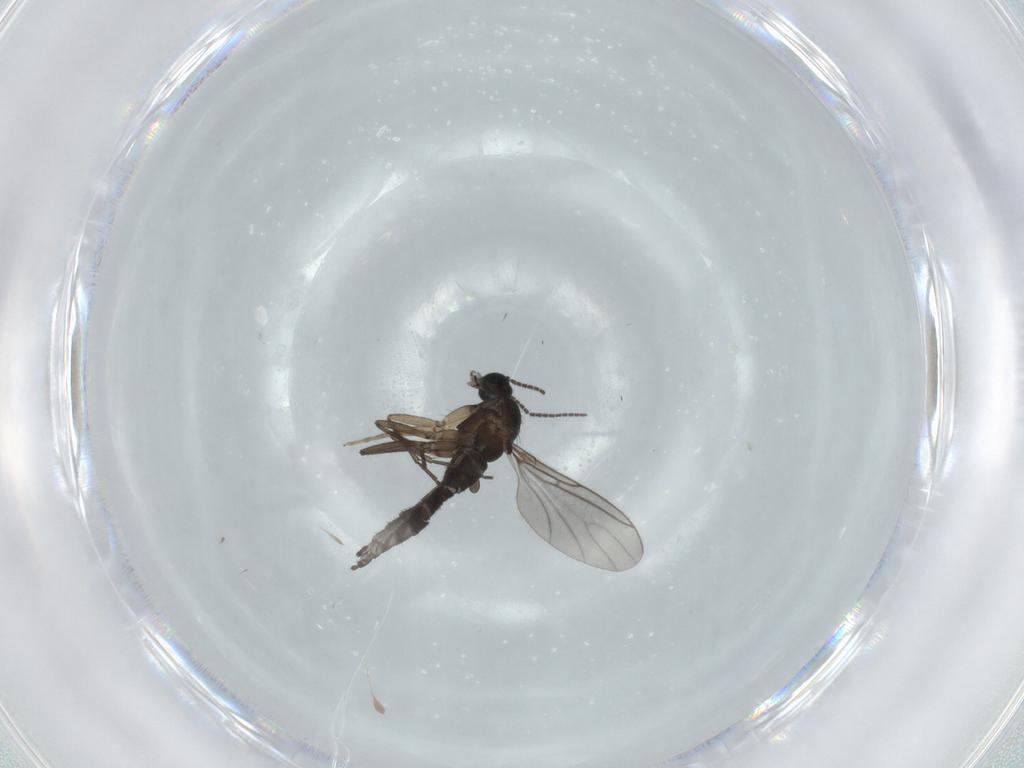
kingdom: Animalia
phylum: Arthropoda
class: Insecta
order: Diptera
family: Sciaridae
